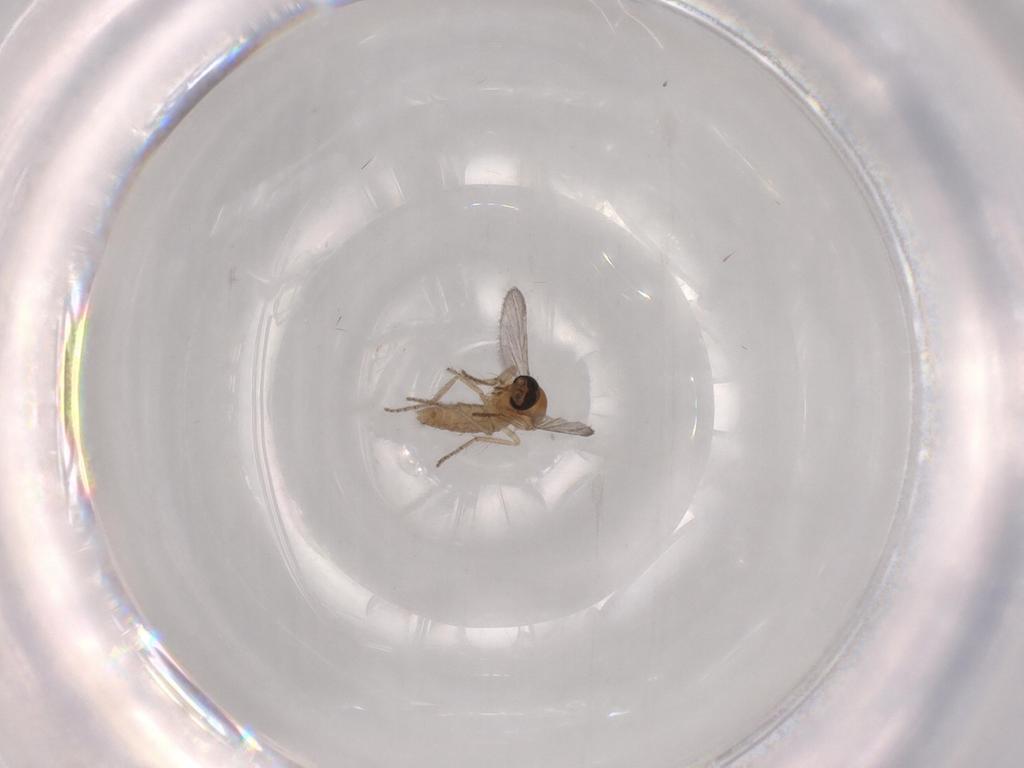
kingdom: Animalia
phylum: Arthropoda
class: Insecta
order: Diptera
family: Ceratopogonidae
